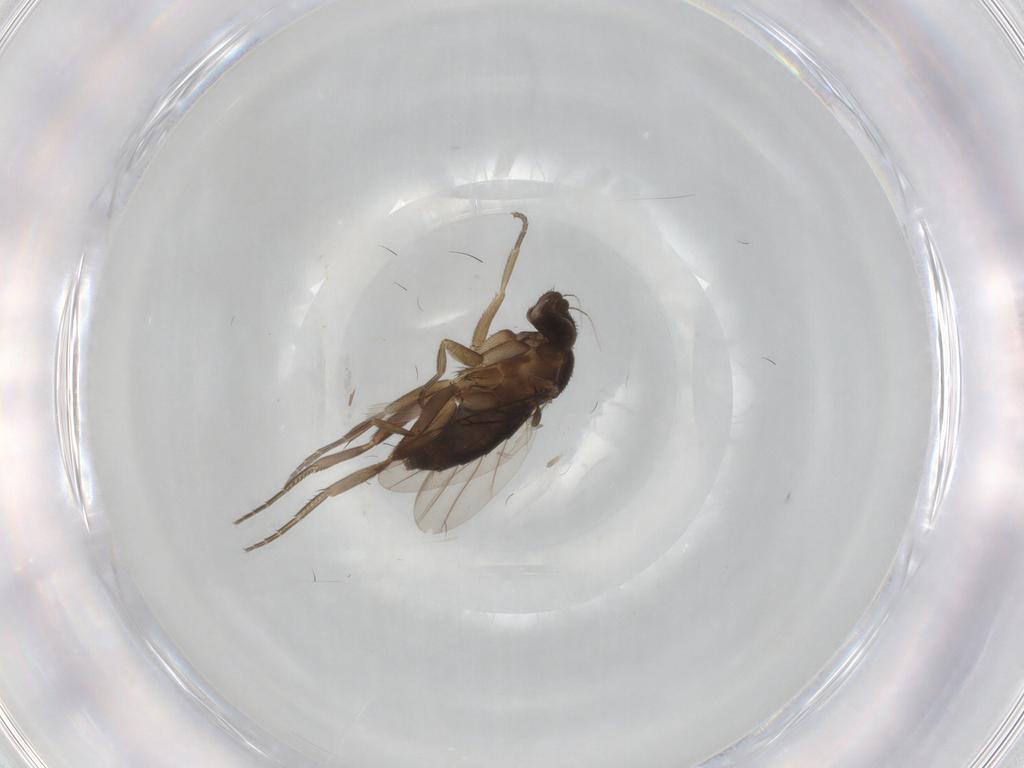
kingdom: Animalia
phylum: Arthropoda
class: Insecta
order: Diptera
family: Phoridae
